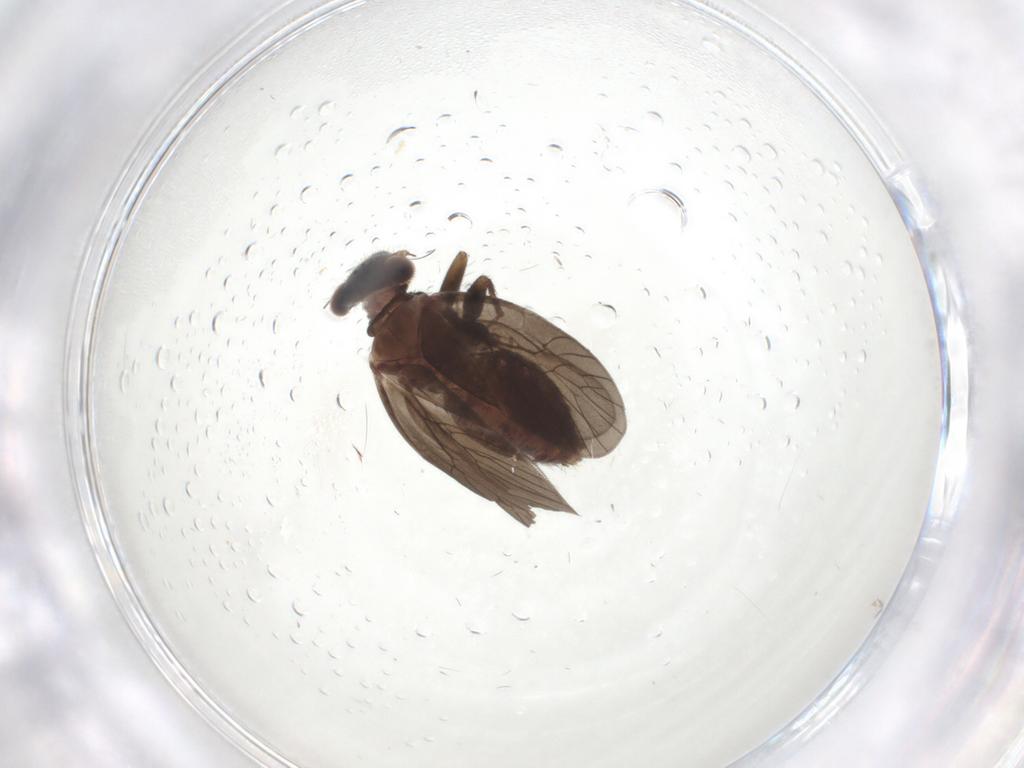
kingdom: Animalia
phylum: Arthropoda
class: Insecta
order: Psocodea
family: Lepidopsocidae
